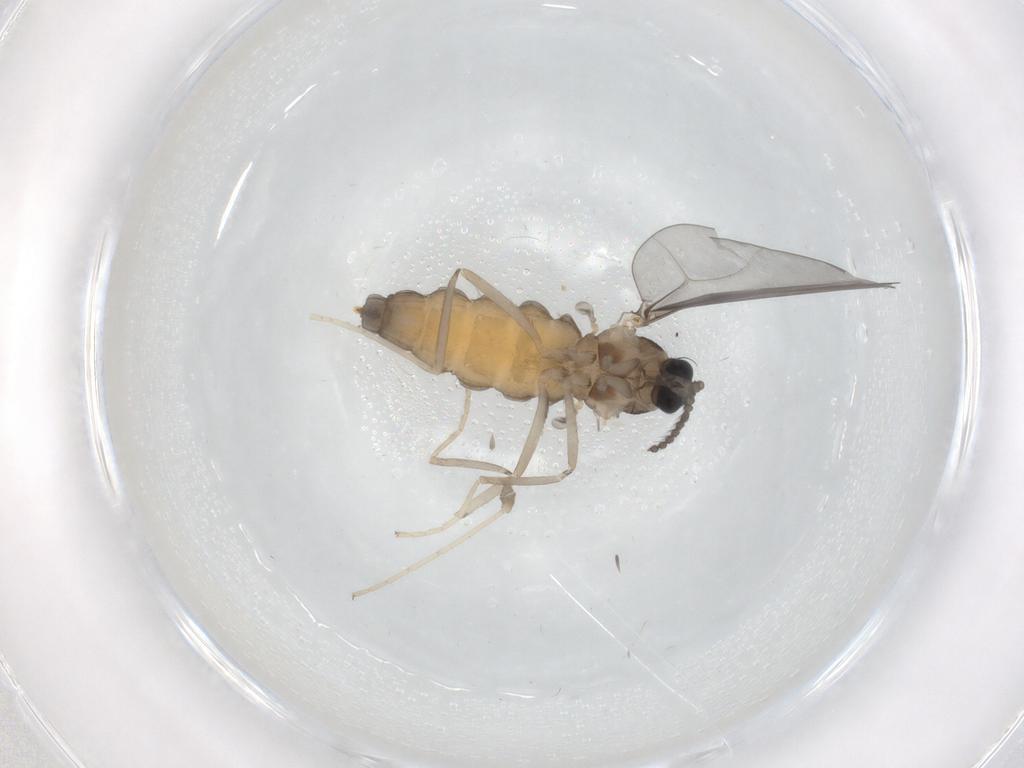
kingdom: Animalia
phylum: Arthropoda
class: Insecta
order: Diptera
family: Cecidomyiidae
